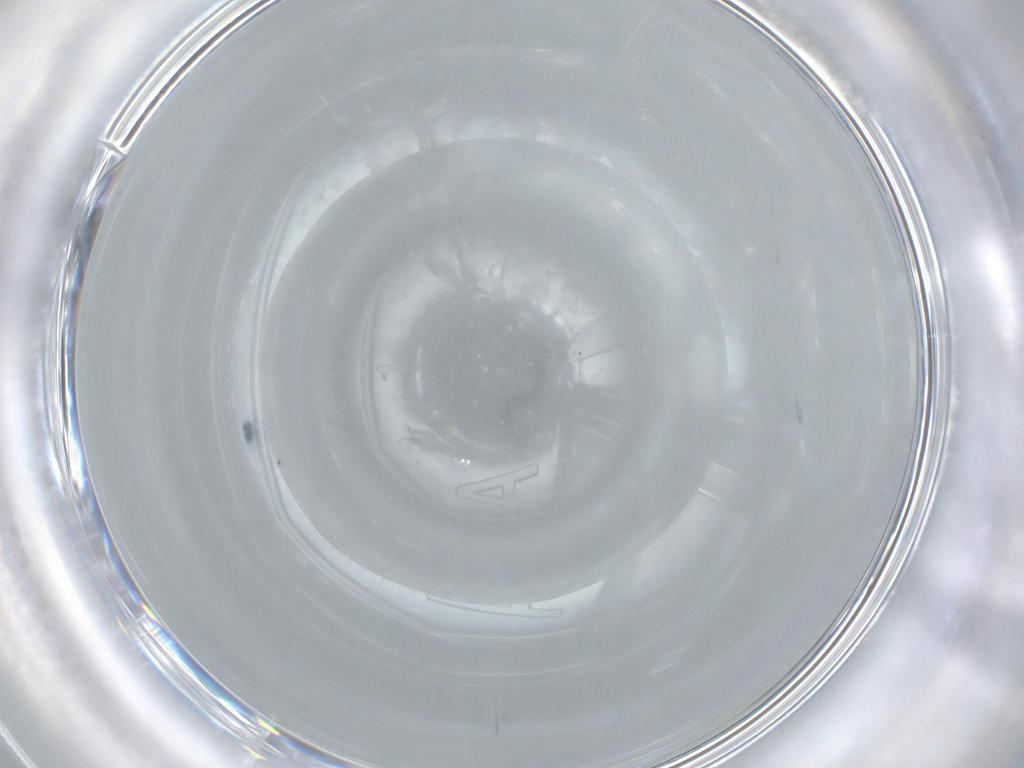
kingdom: Animalia
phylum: Arthropoda
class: Insecta
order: Diptera
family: Cecidomyiidae
